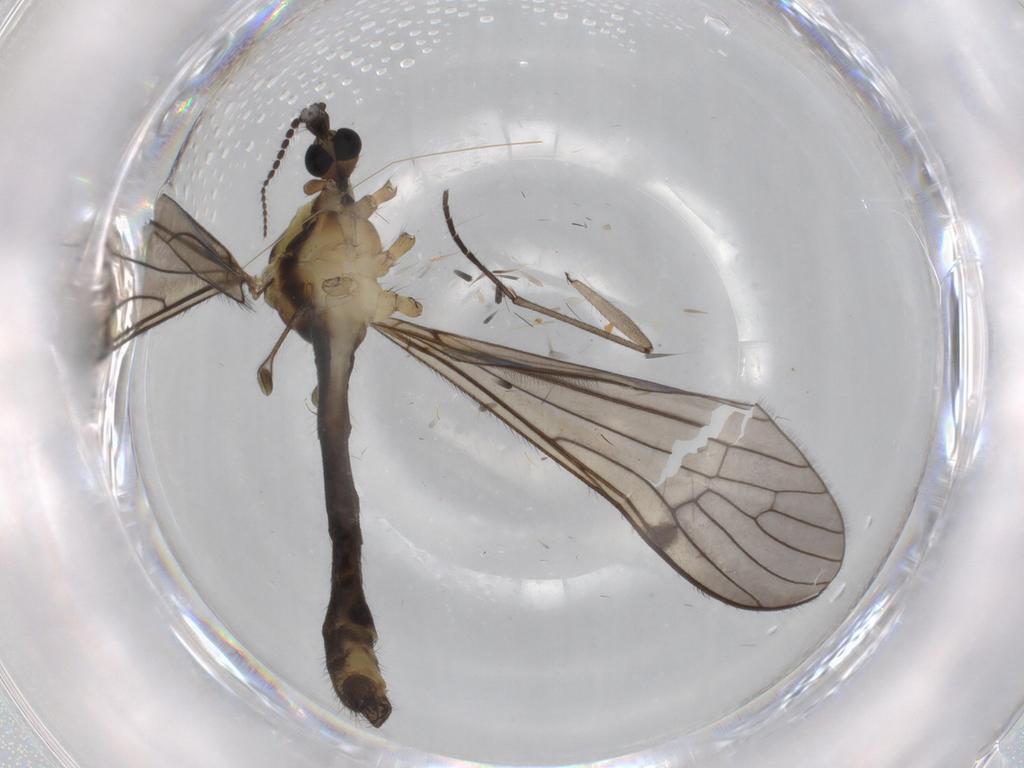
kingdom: Animalia
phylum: Arthropoda
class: Insecta
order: Diptera
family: Limoniidae
